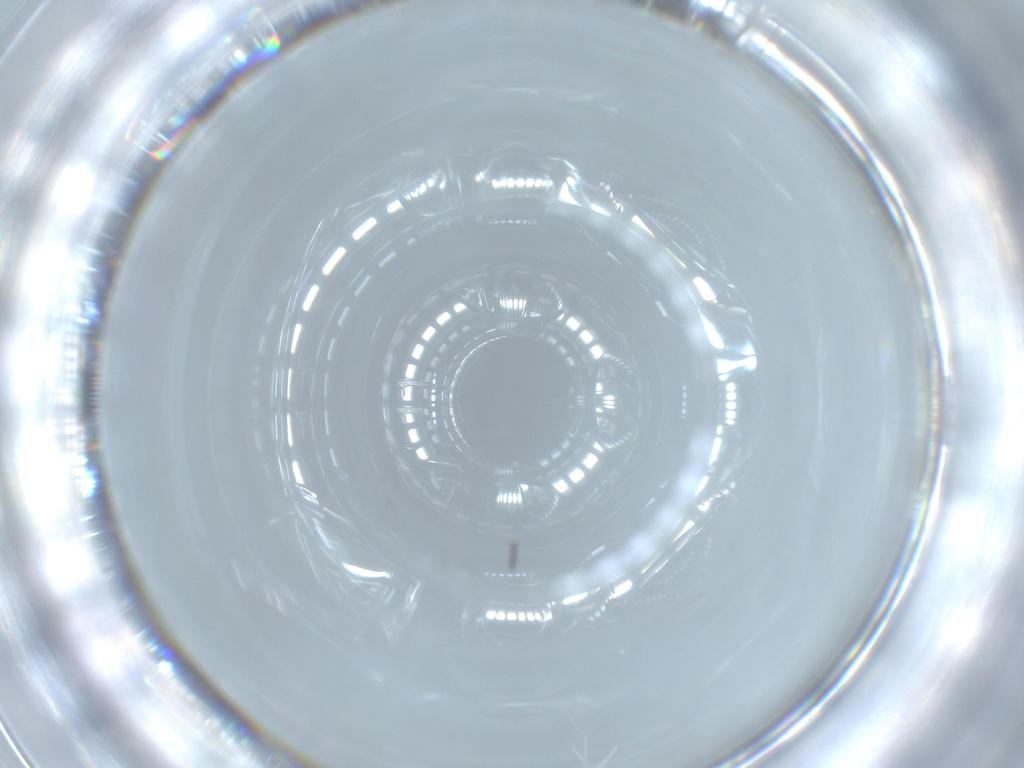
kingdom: Animalia
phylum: Arthropoda
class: Insecta
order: Diptera
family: Phoridae
